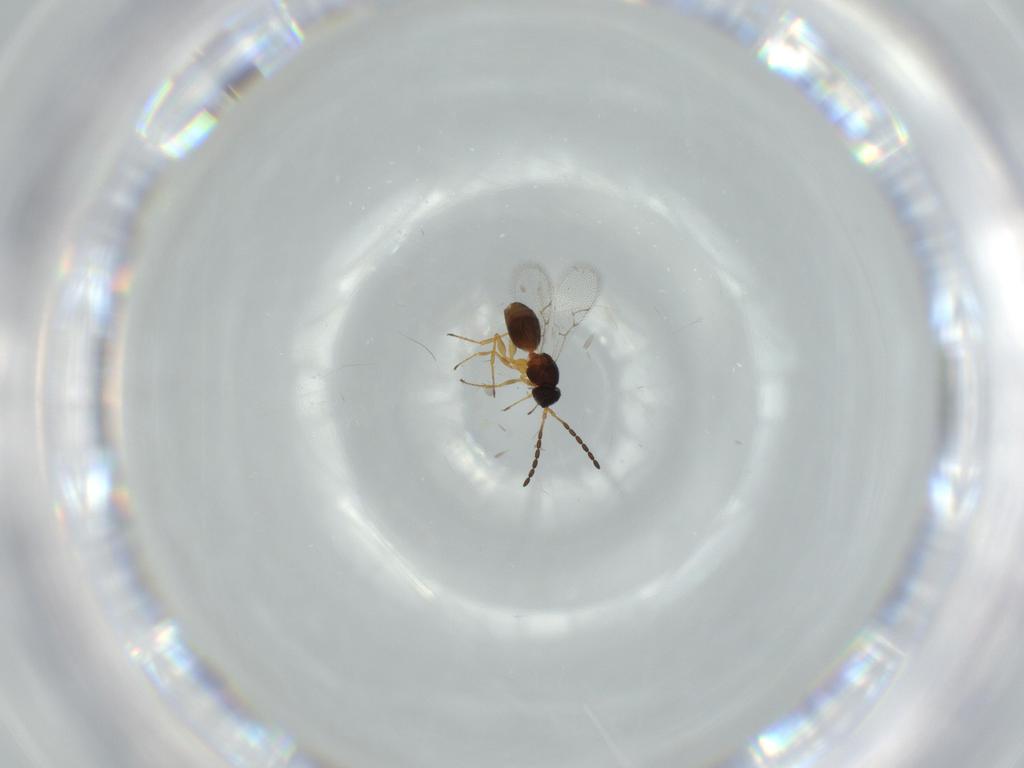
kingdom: Animalia
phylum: Arthropoda
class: Insecta
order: Hymenoptera
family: Figitidae
